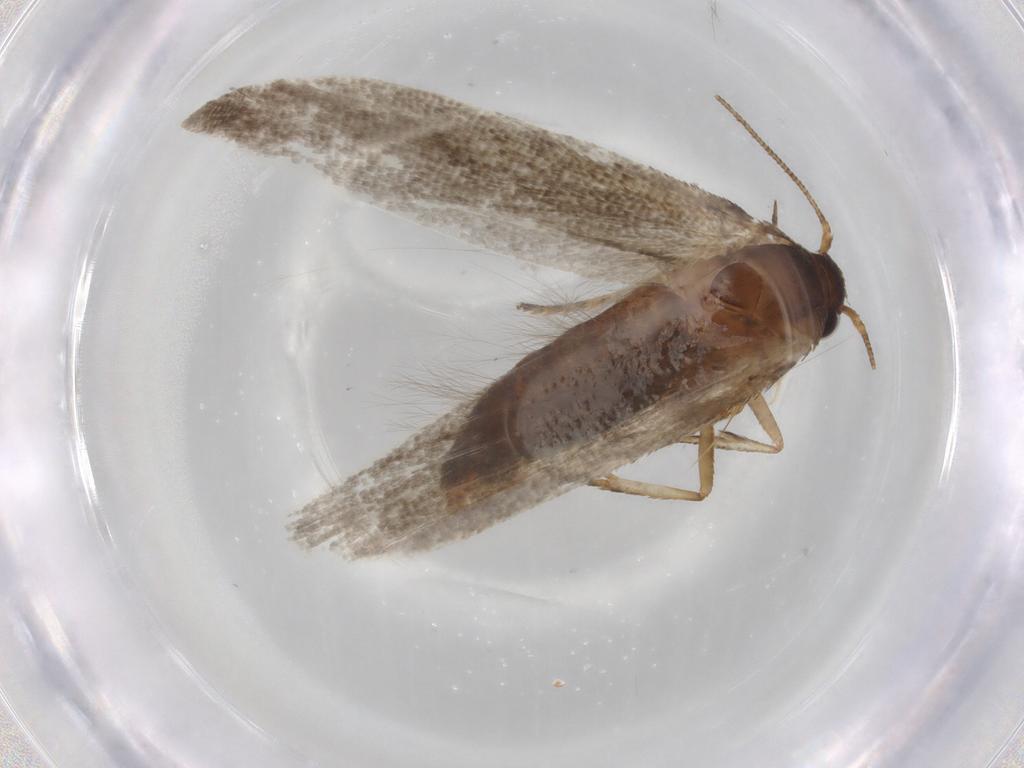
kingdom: Animalia
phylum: Arthropoda
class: Insecta
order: Lepidoptera
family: Blastobasidae
